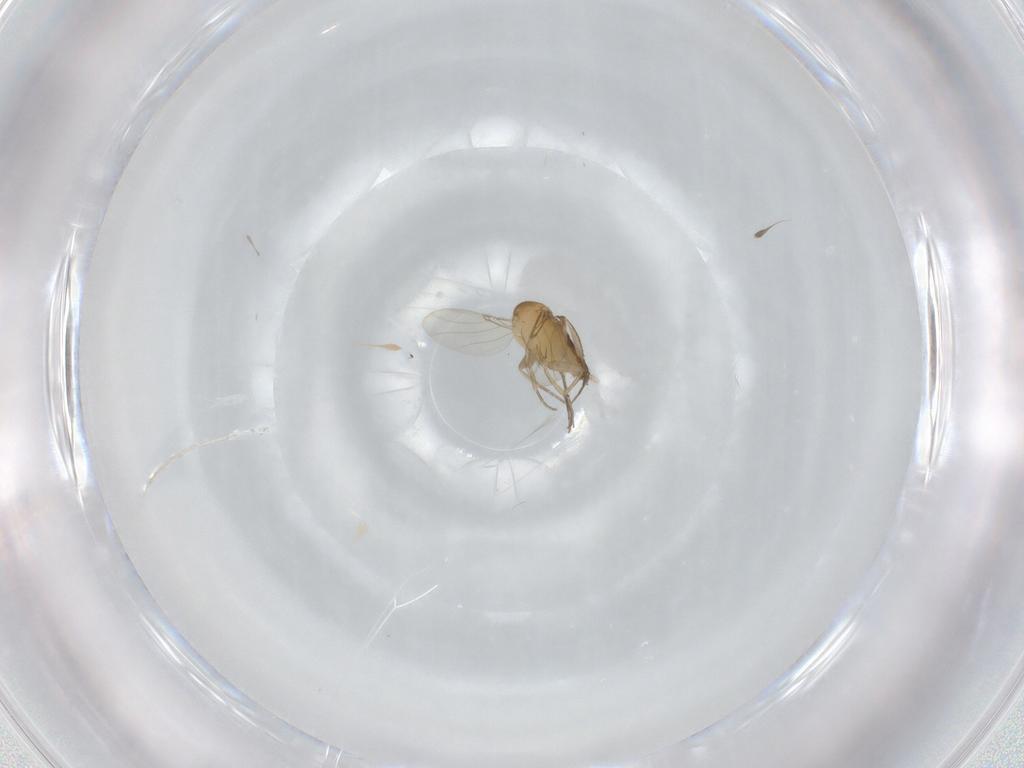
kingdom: Animalia
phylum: Arthropoda
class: Insecta
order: Diptera
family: Phoridae
